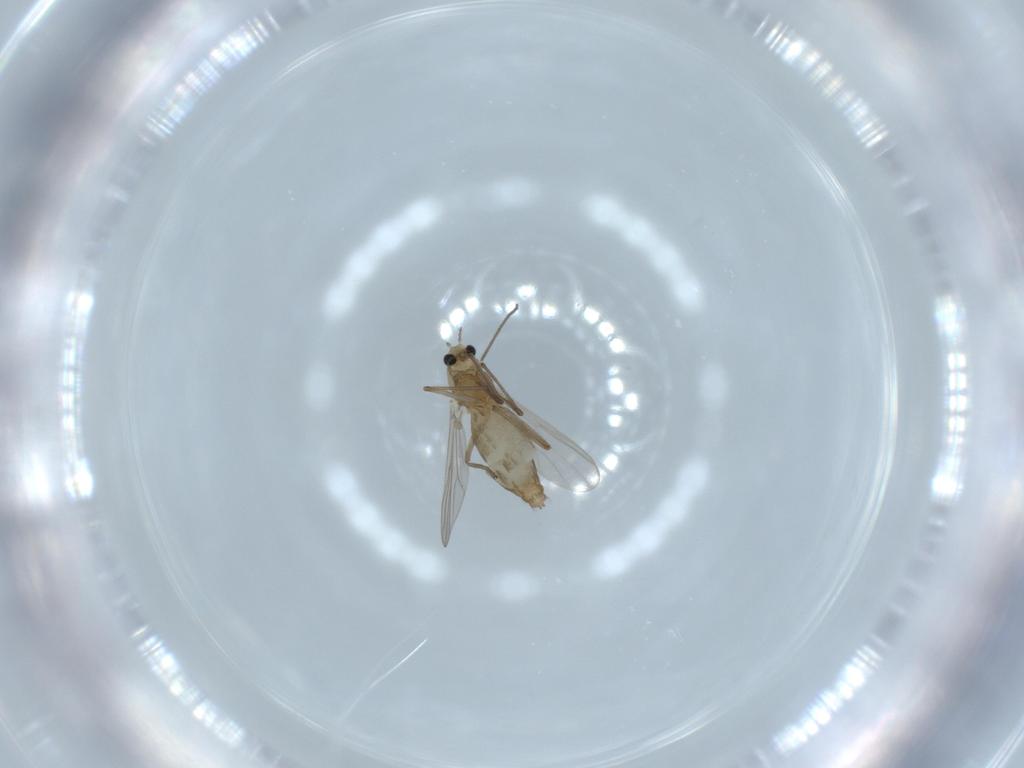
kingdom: Animalia
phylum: Arthropoda
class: Insecta
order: Diptera
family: Chironomidae
